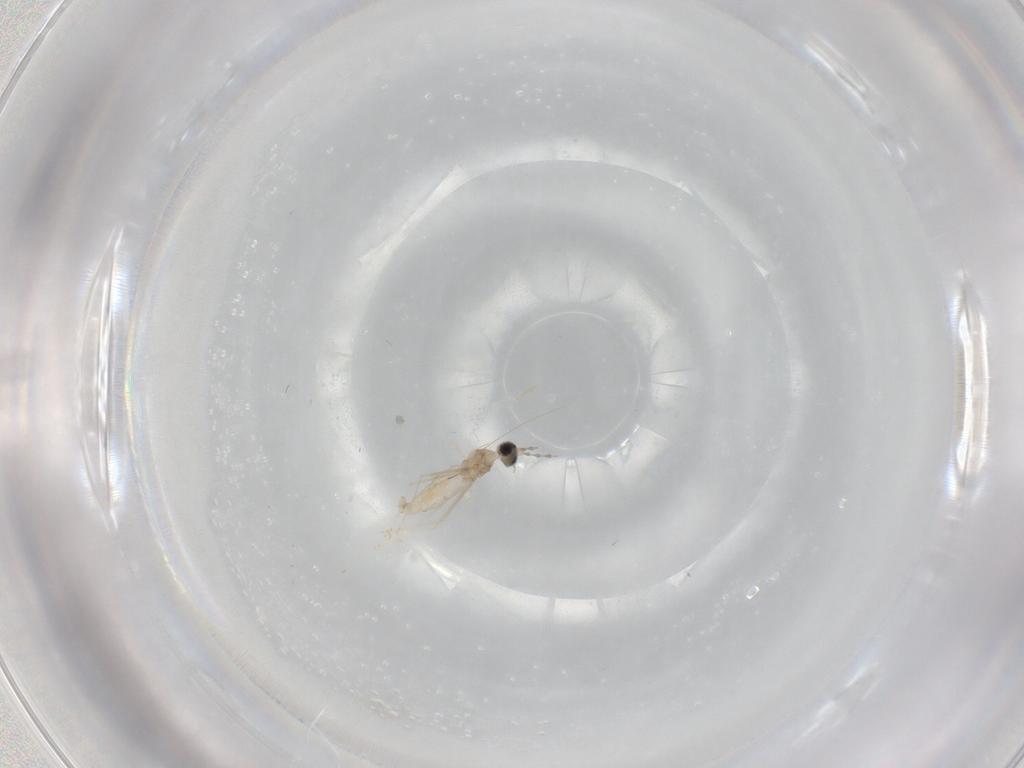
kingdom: Animalia
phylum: Arthropoda
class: Insecta
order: Diptera
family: Cecidomyiidae
